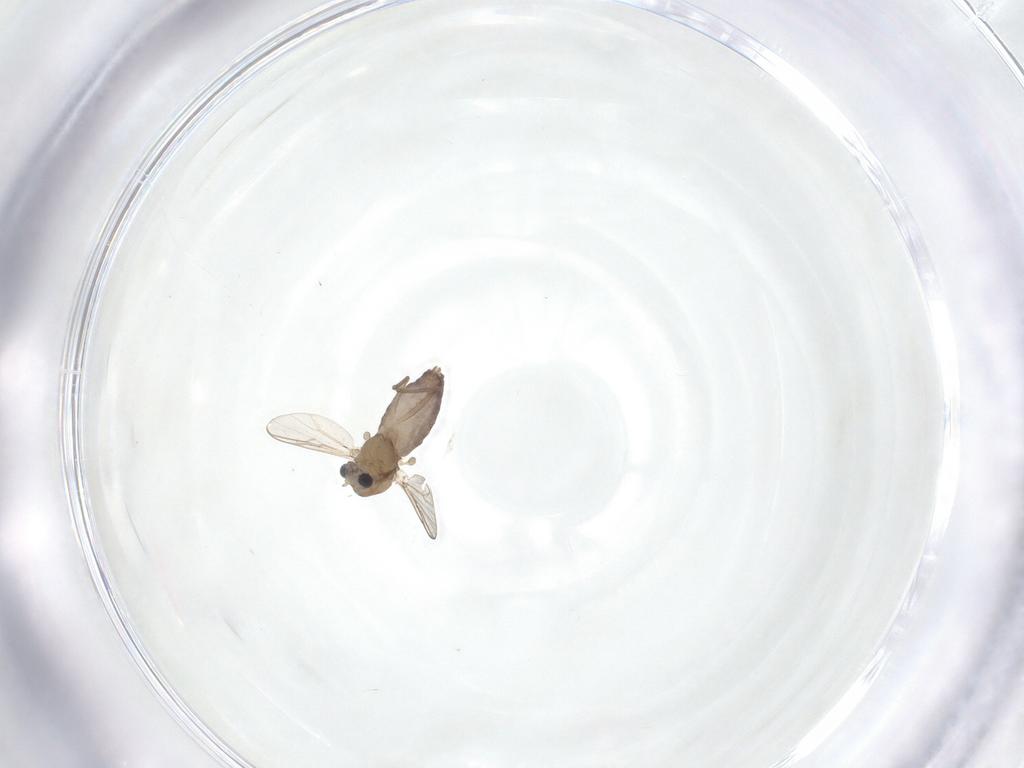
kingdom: Animalia
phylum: Arthropoda
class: Insecta
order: Diptera
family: Chironomidae
